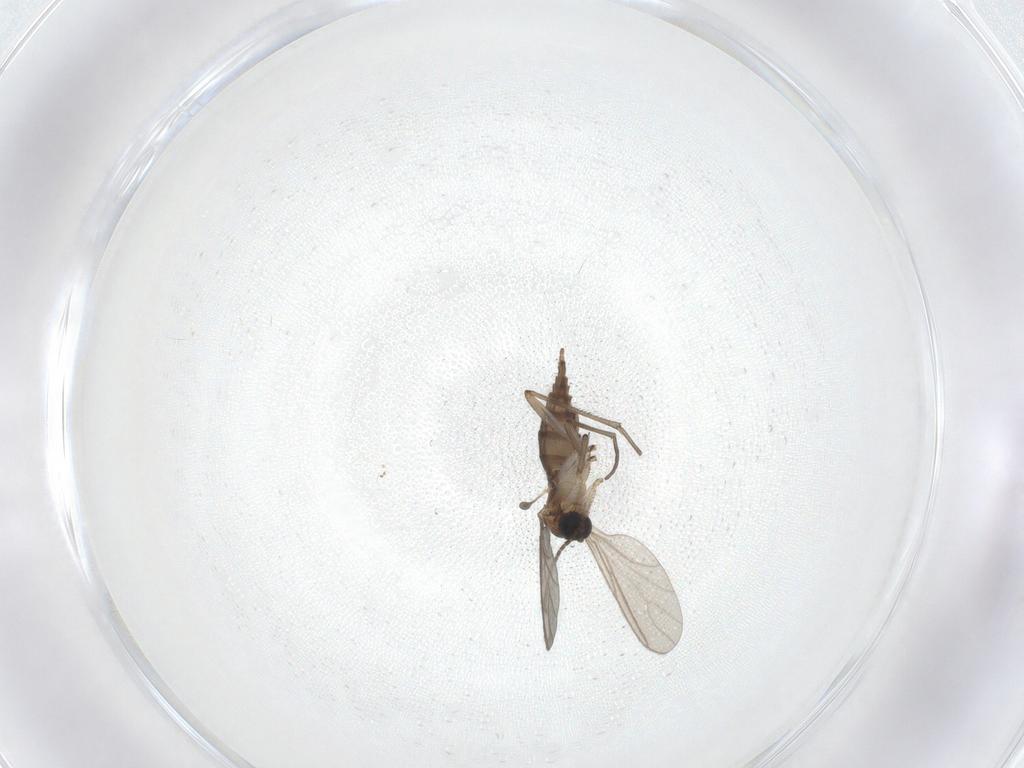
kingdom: Animalia
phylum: Arthropoda
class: Insecta
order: Diptera
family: Sciaridae
